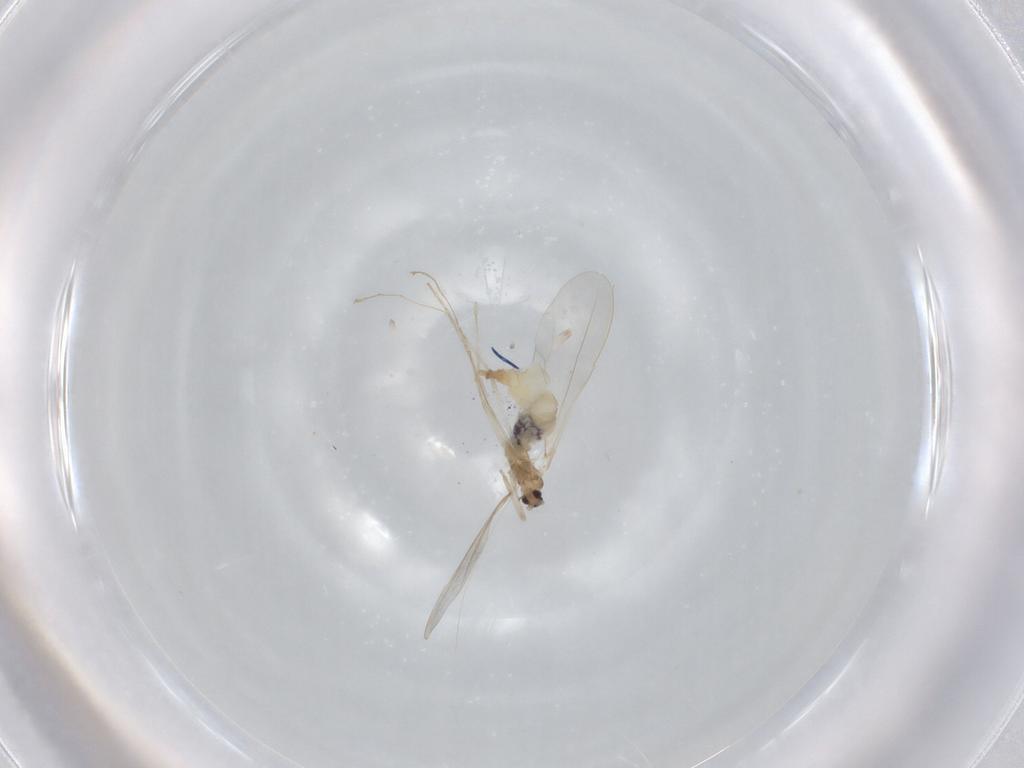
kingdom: Animalia
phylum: Arthropoda
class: Insecta
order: Diptera
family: Cecidomyiidae
